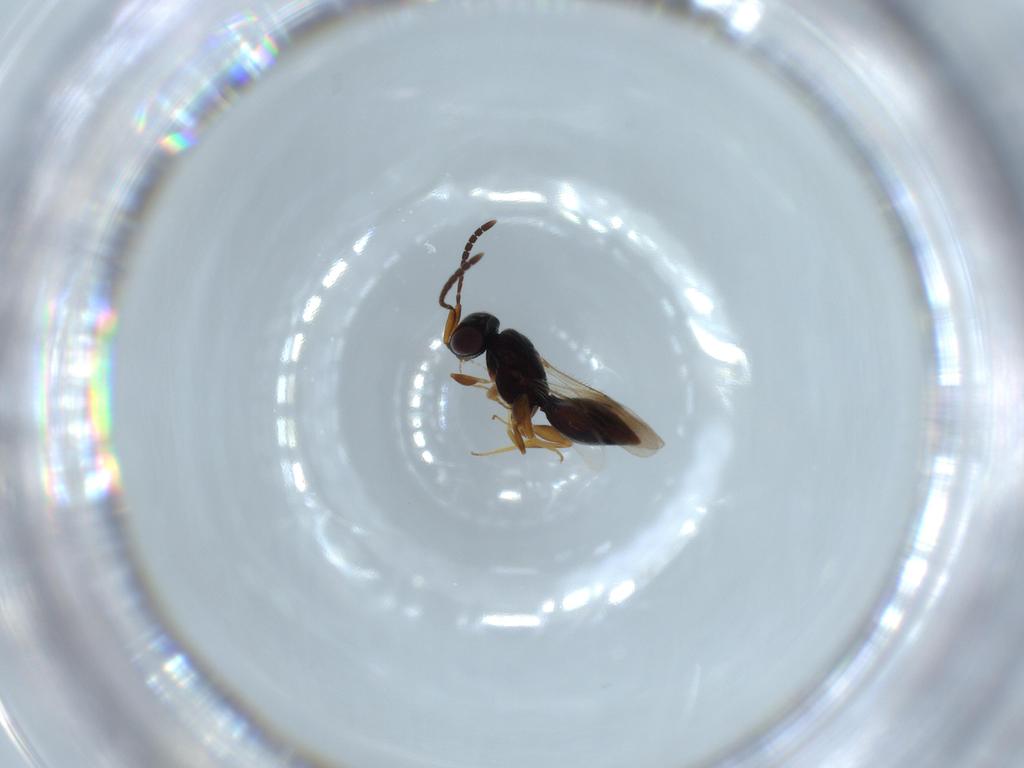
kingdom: Animalia
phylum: Arthropoda
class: Insecta
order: Hymenoptera
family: Megaspilidae
